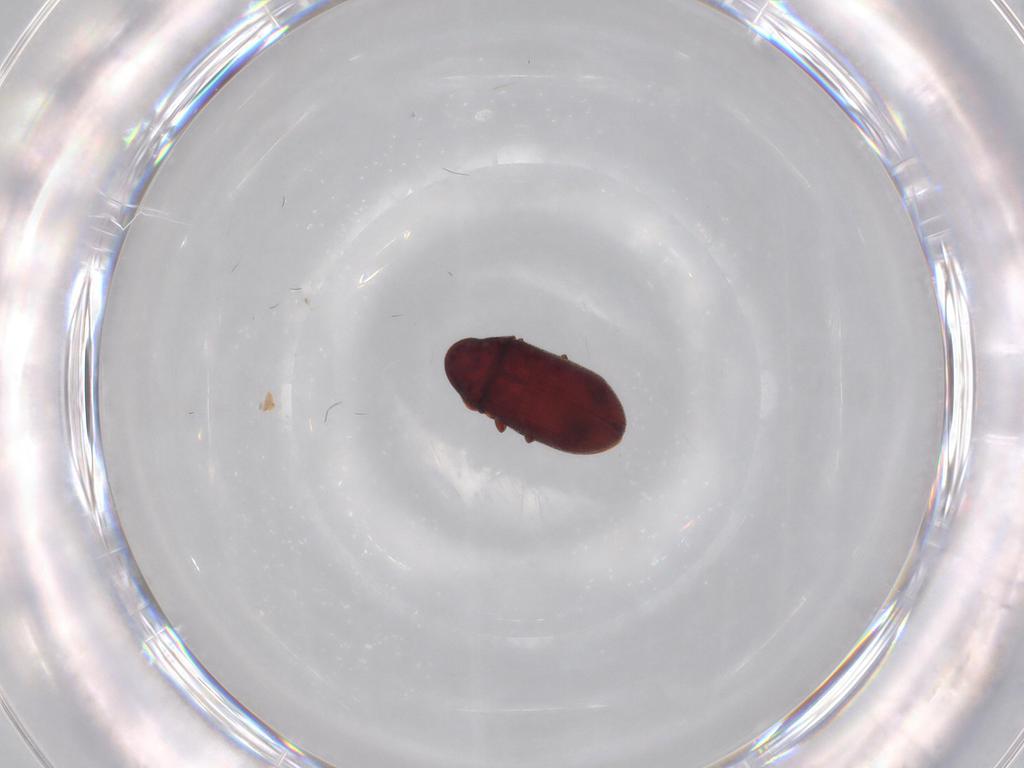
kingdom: Animalia
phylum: Arthropoda
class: Insecta
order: Coleoptera
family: Ptinidae
